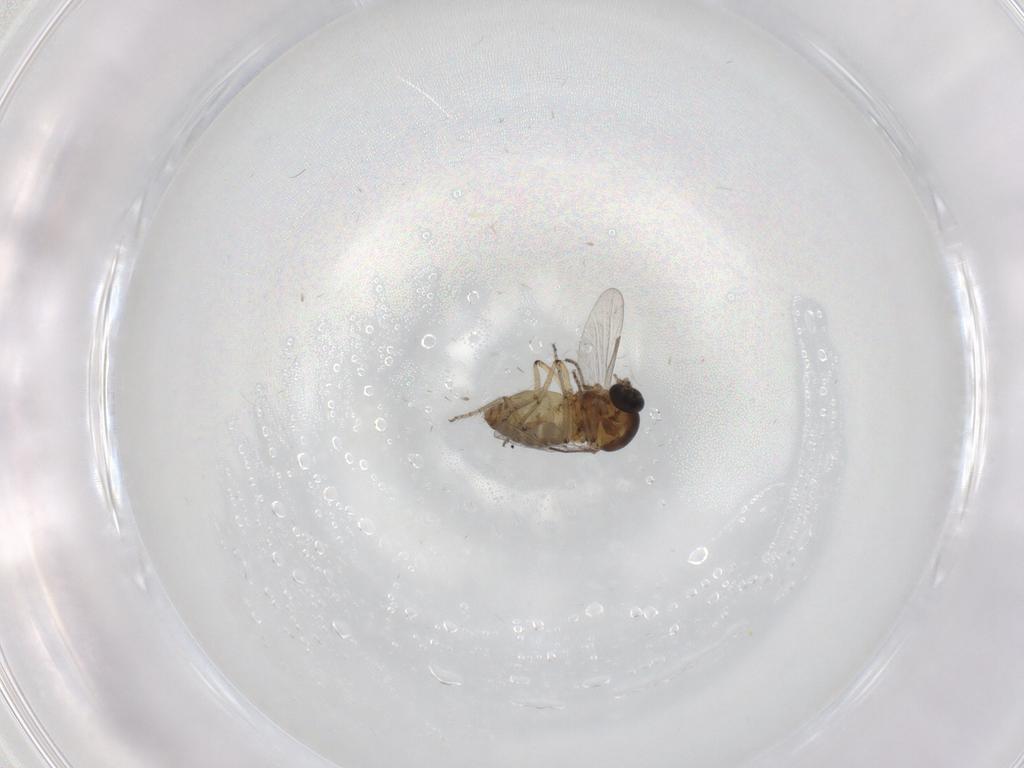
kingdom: Animalia
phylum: Arthropoda
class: Insecta
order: Diptera
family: Ceratopogonidae
